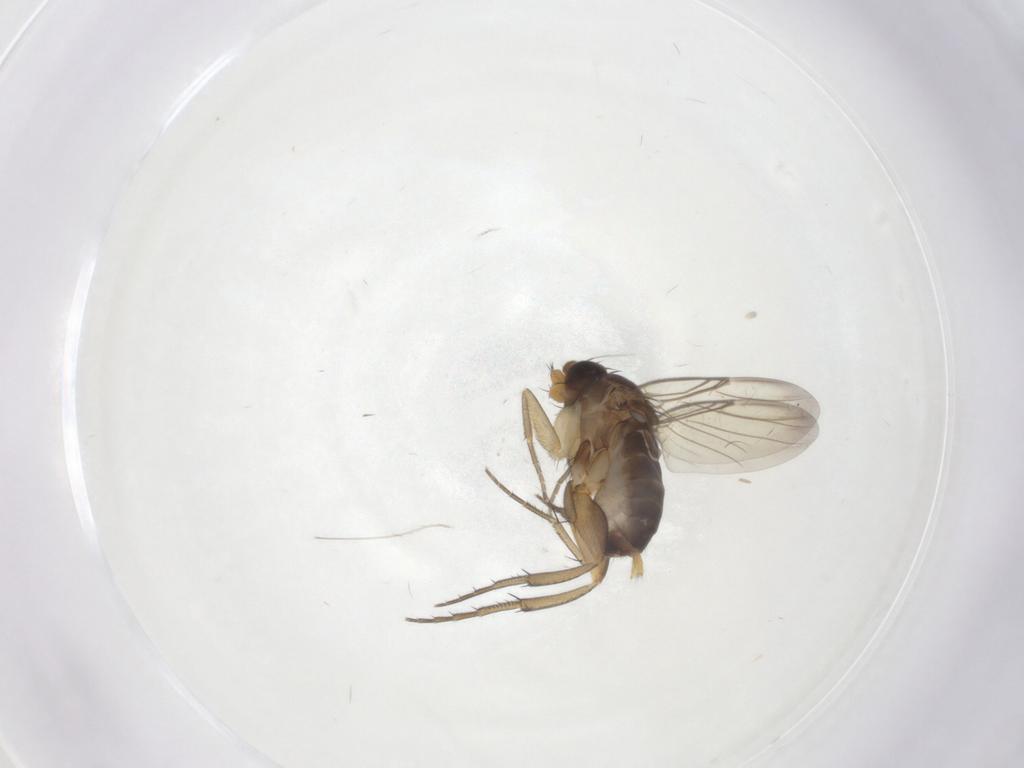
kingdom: Animalia
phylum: Arthropoda
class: Insecta
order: Diptera
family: Phoridae
